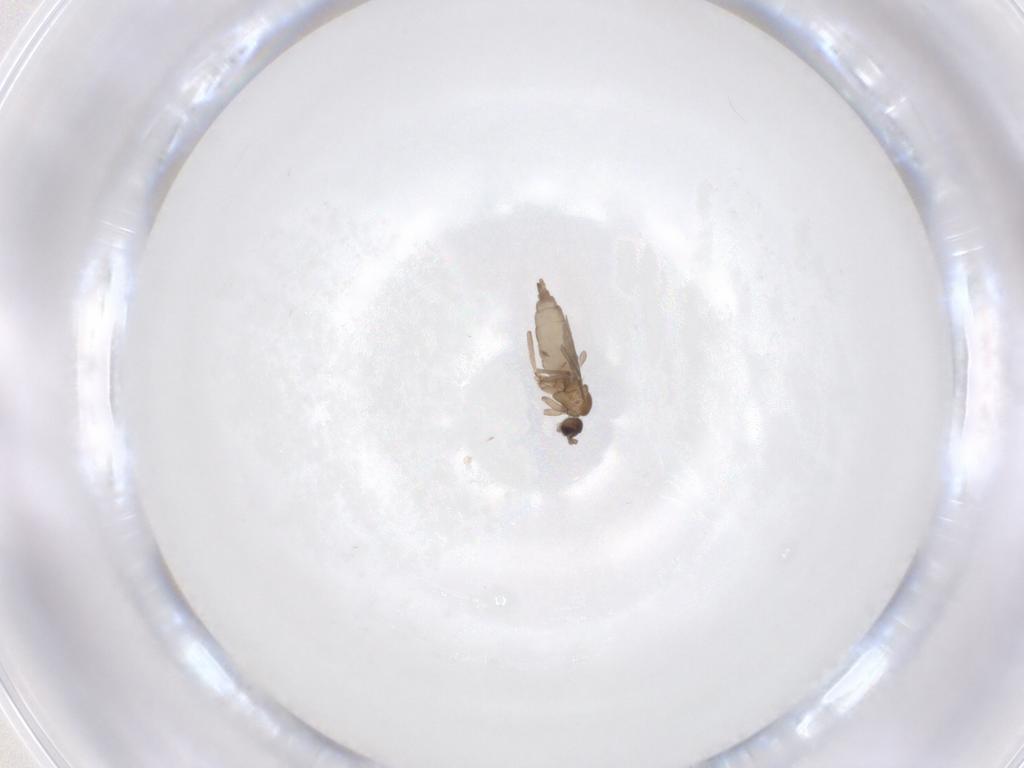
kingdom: Animalia
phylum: Arthropoda
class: Insecta
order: Diptera
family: Chironomidae
